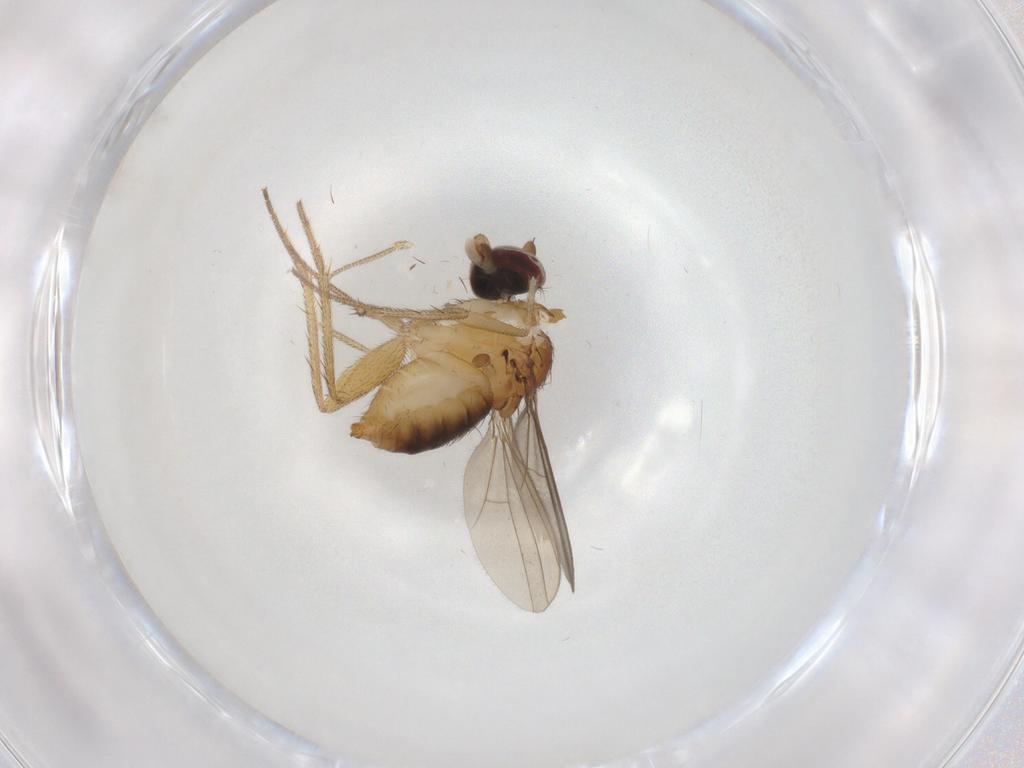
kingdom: Animalia
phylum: Arthropoda
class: Insecta
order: Diptera
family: Dolichopodidae
